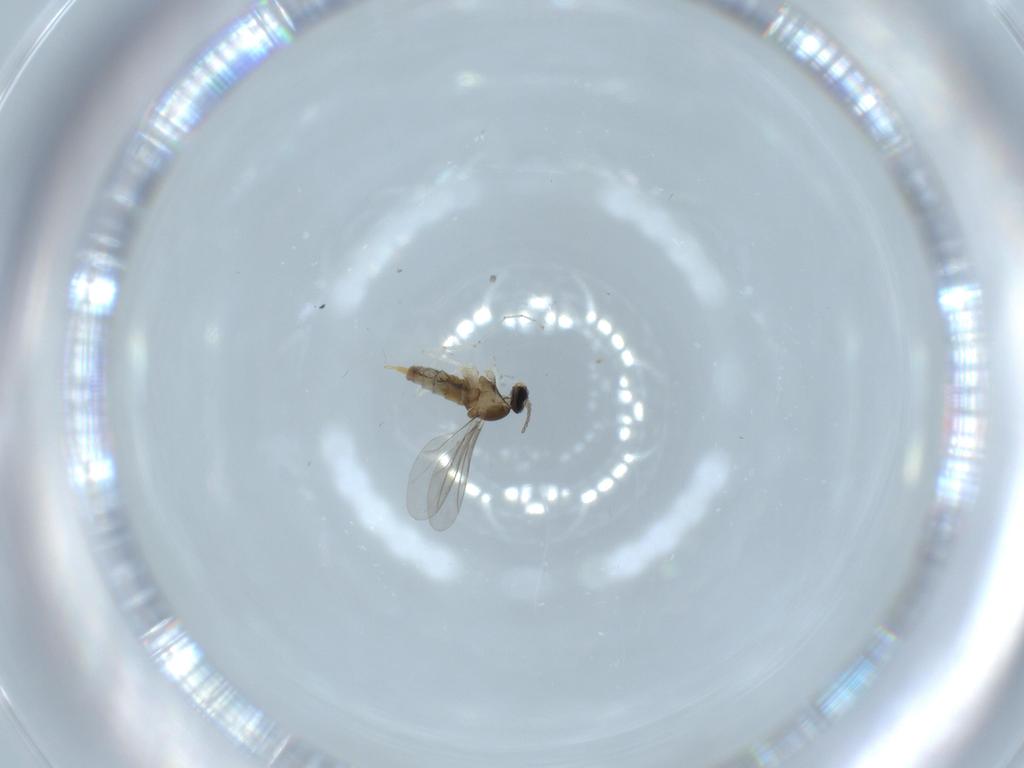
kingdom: Animalia
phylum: Arthropoda
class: Insecta
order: Diptera
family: Cecidomyiidae
